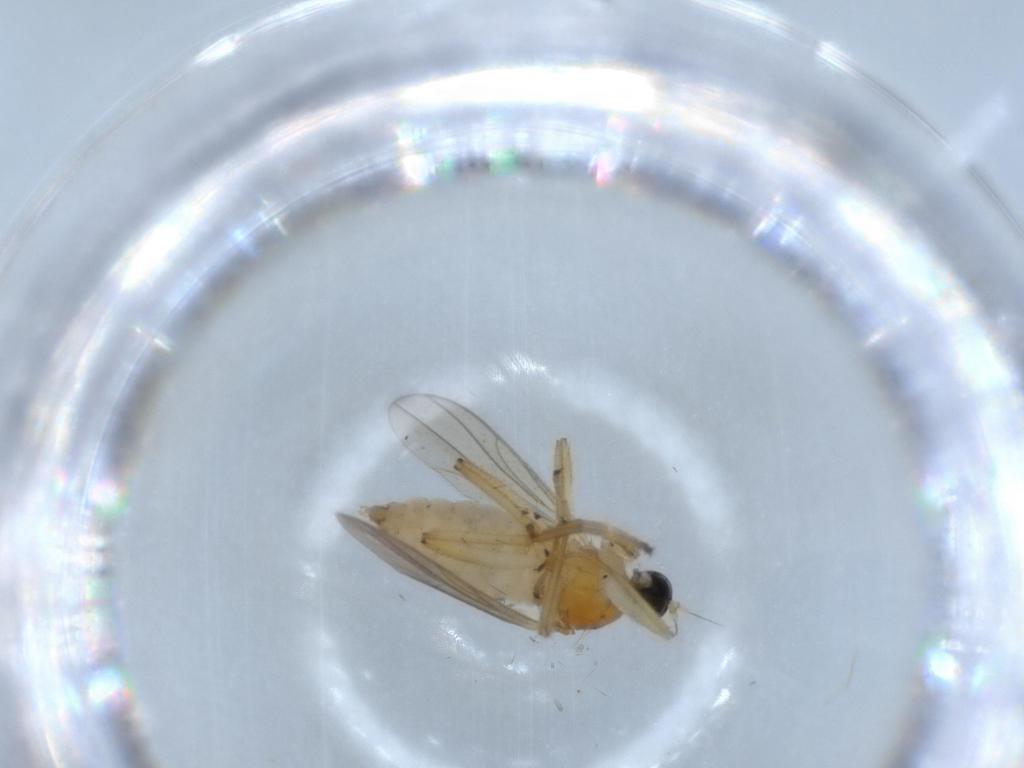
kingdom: Animalia
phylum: Arthropoda
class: Insecta
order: Diptera
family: Hybotidae
